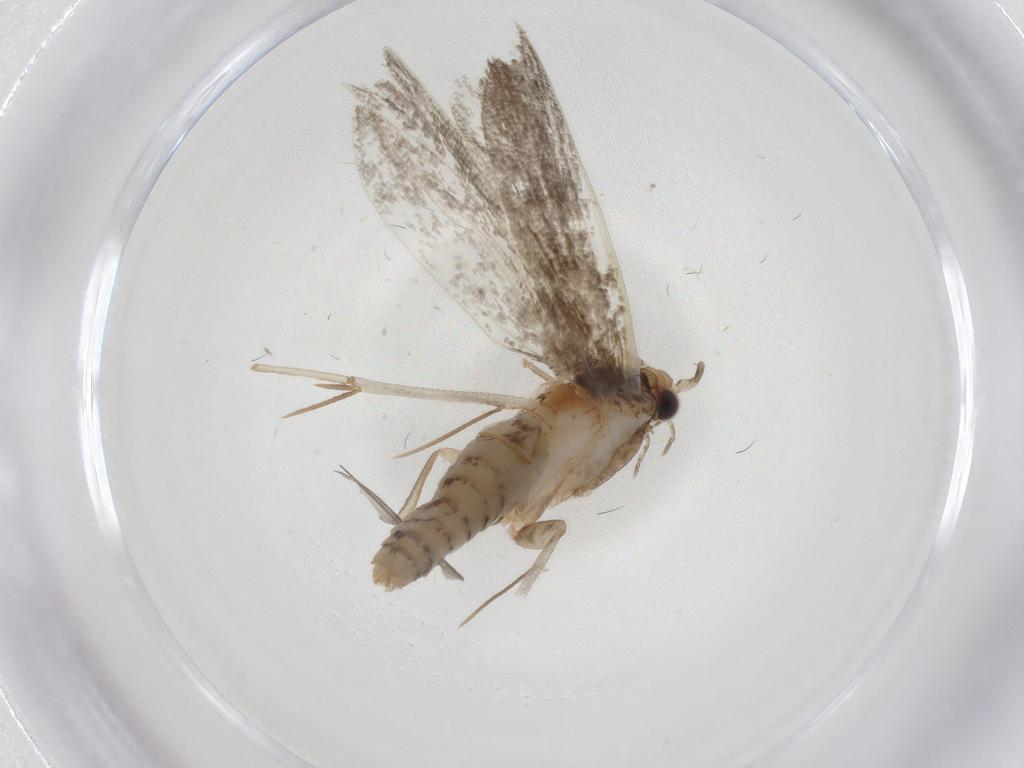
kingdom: Animalia
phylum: Arthropoda
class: Insecta
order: Lepidoptera
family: Tineidae
